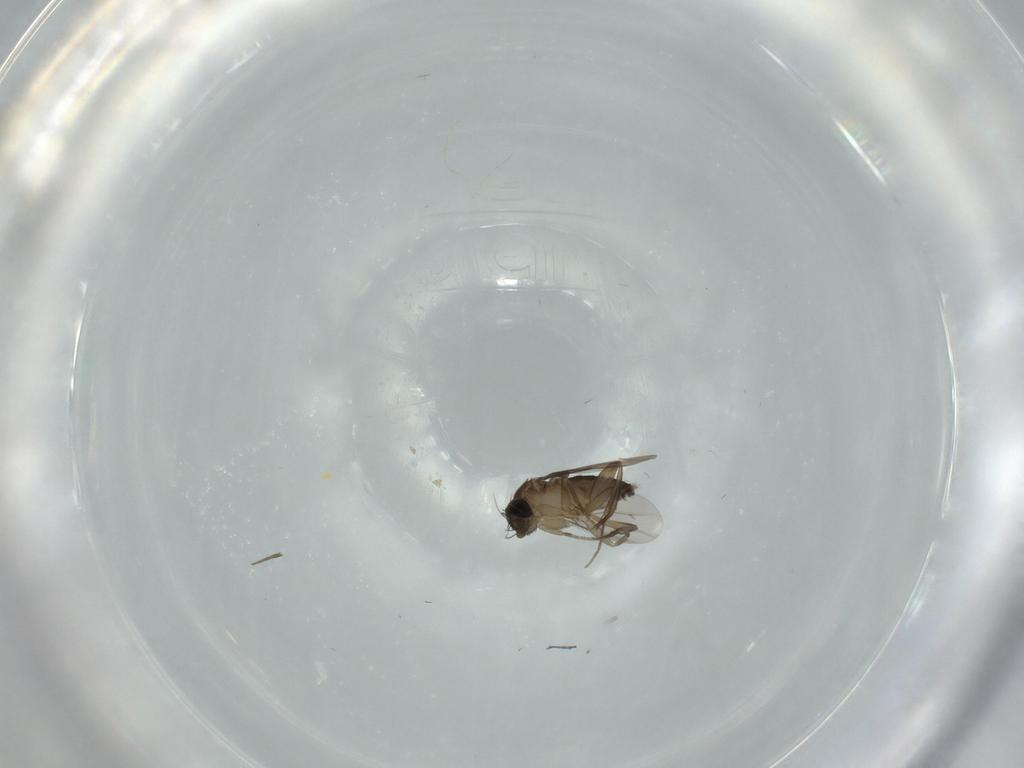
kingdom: Animalia
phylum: Arthropoda
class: Insecta
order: Diptera
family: Phoridae
